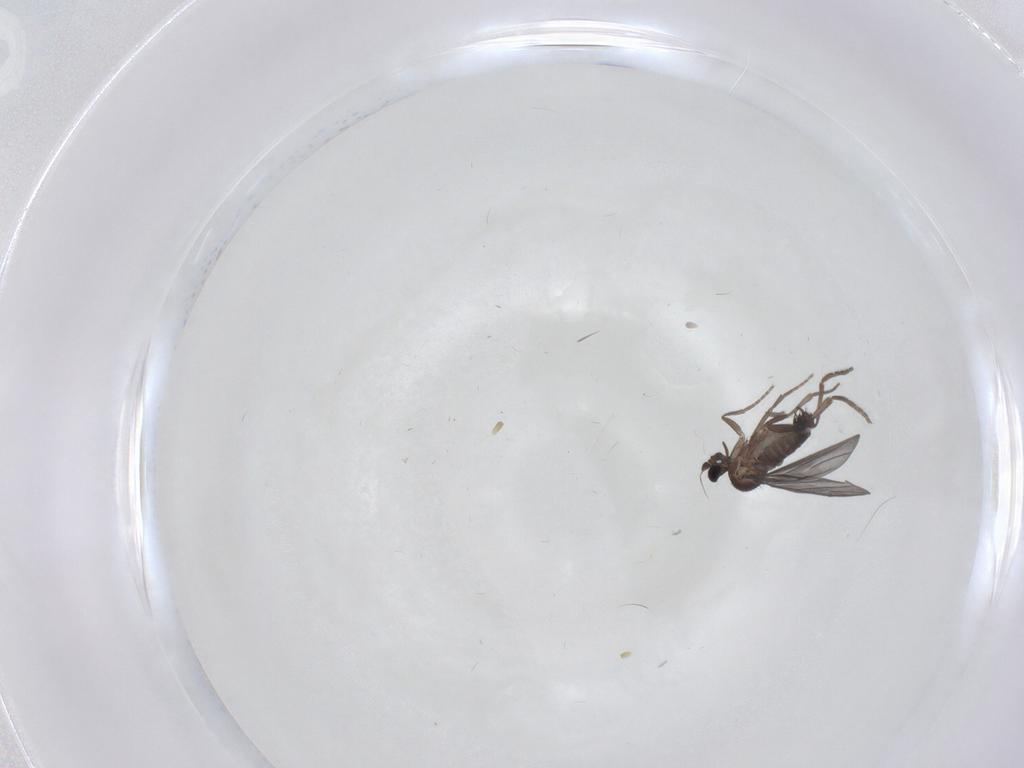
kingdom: Animalia
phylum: Arthropoda
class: Insecta
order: Diptera
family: Phoridae
